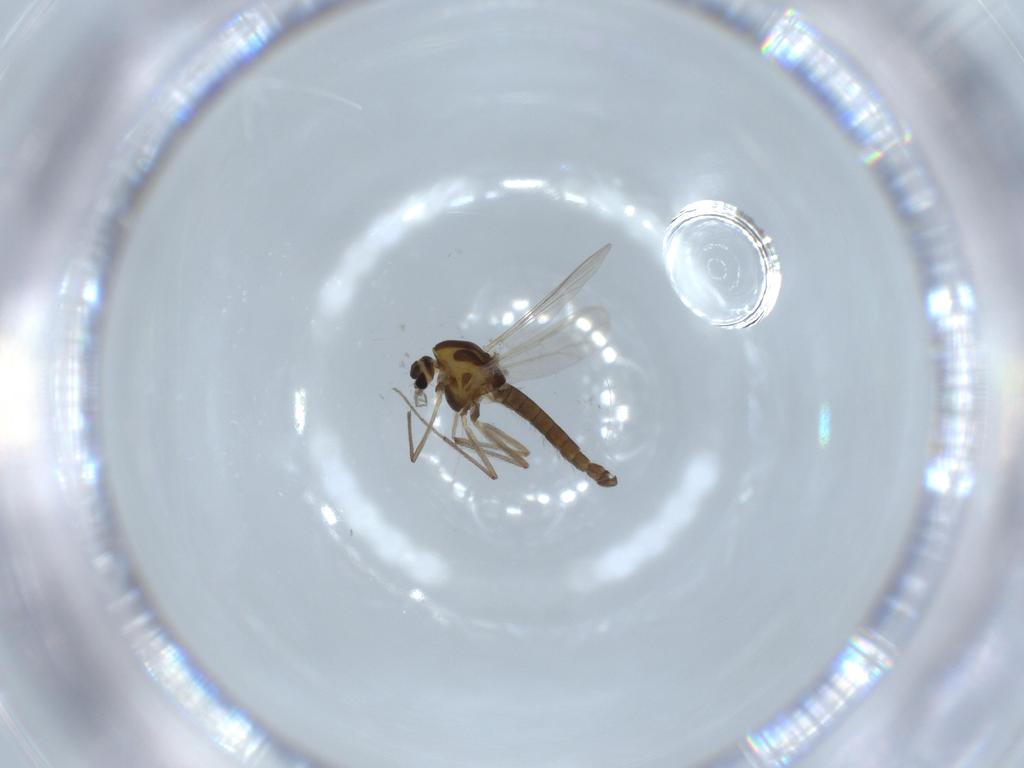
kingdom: Animalia
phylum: Arthropoda
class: Insecta
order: Diptera
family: Chironomidae
